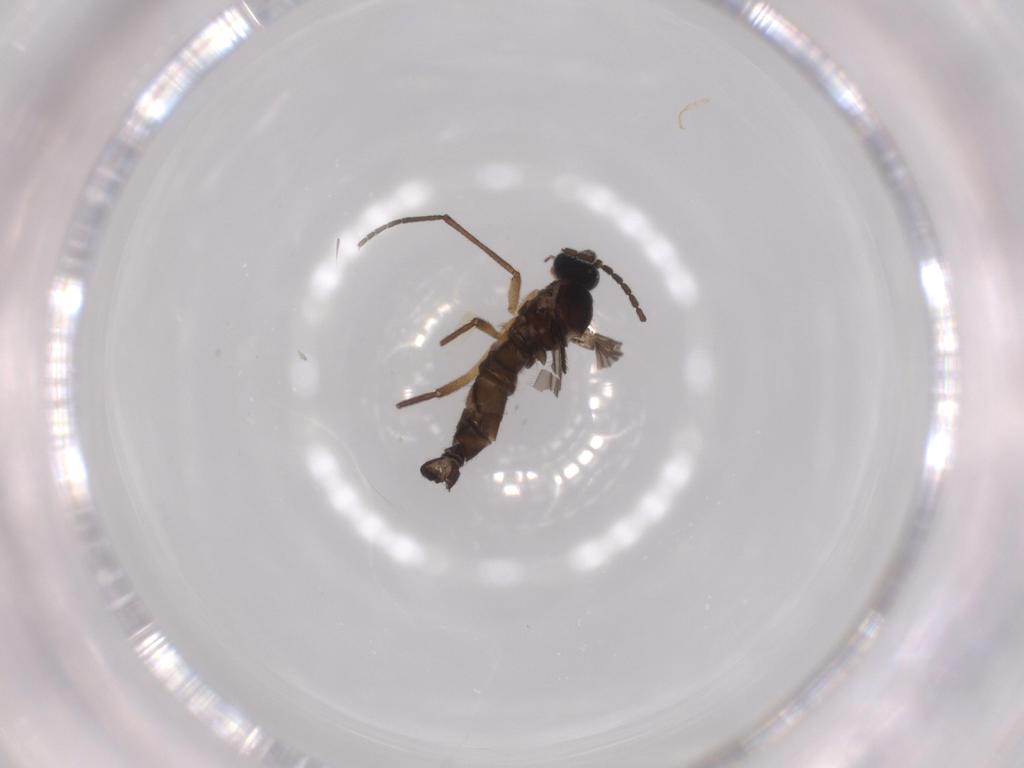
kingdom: Animalia
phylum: Arthropoda
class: Insecta
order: Diptera
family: Sciaridae
